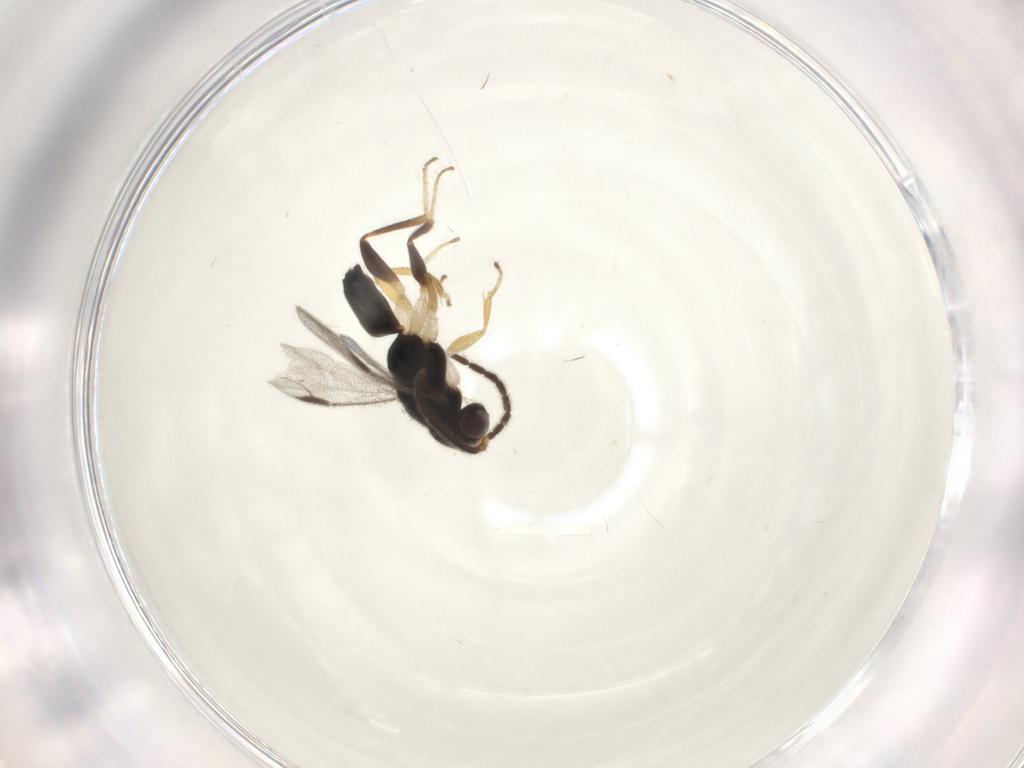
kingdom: Animalia
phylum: Arthropoda
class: Insecta
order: Hymenoptera
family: Dryinidae
